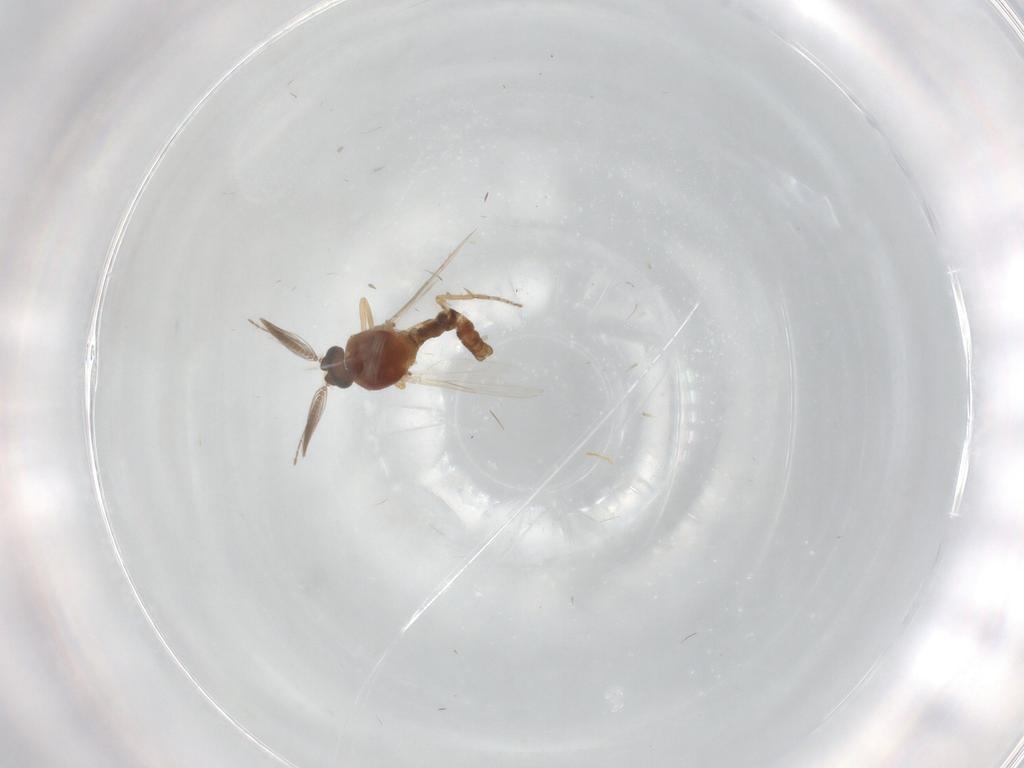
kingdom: Animalia
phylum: Arthropoda
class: Insecta
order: Diptera
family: Ceratopogonidae
